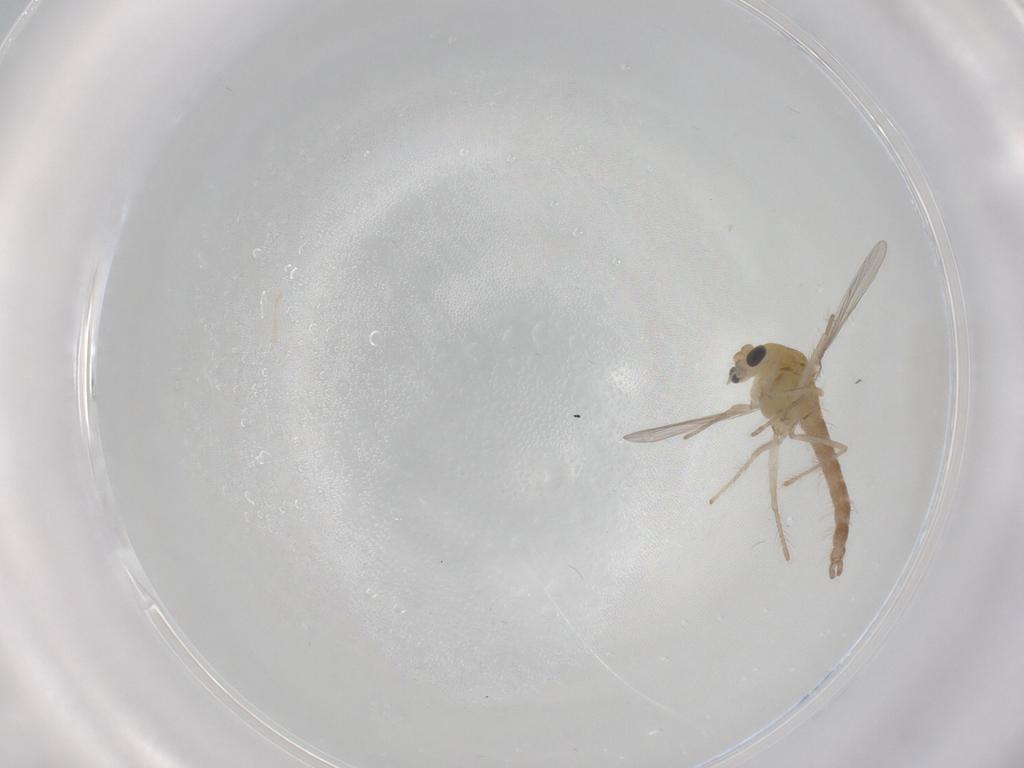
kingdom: Animalia
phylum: Arthropoda
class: Insecta
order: Diptera
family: Chironomidae
